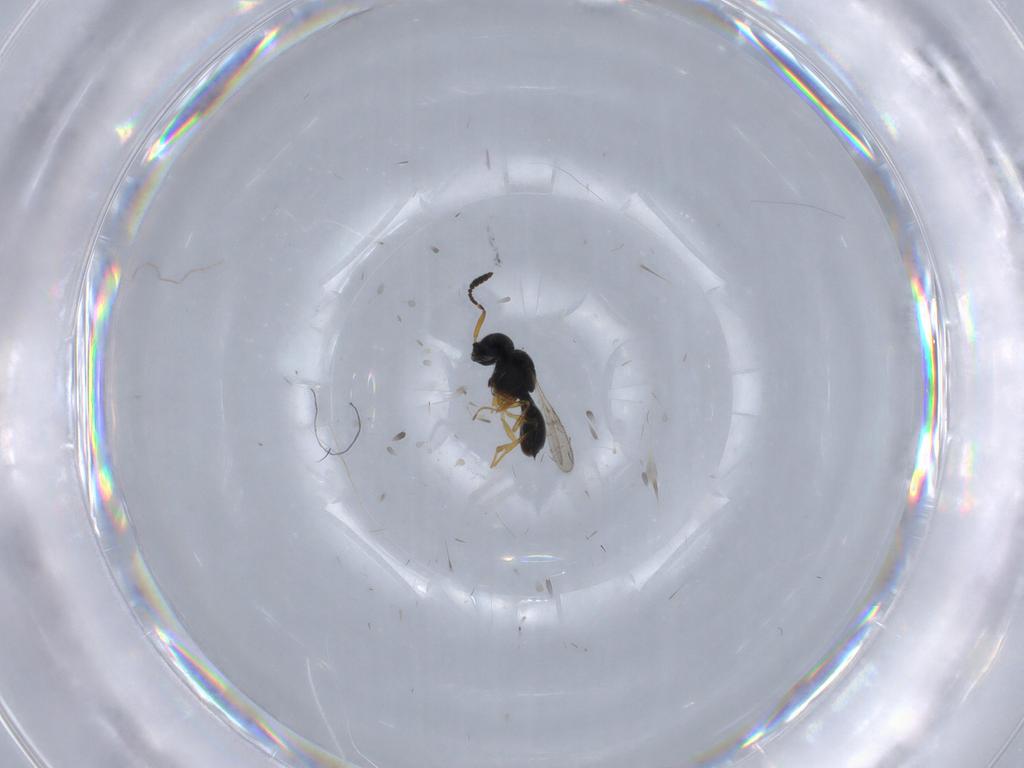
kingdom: Animalia
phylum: Arthropoda
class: Insecta
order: Hymenoptera
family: Scelionidae
